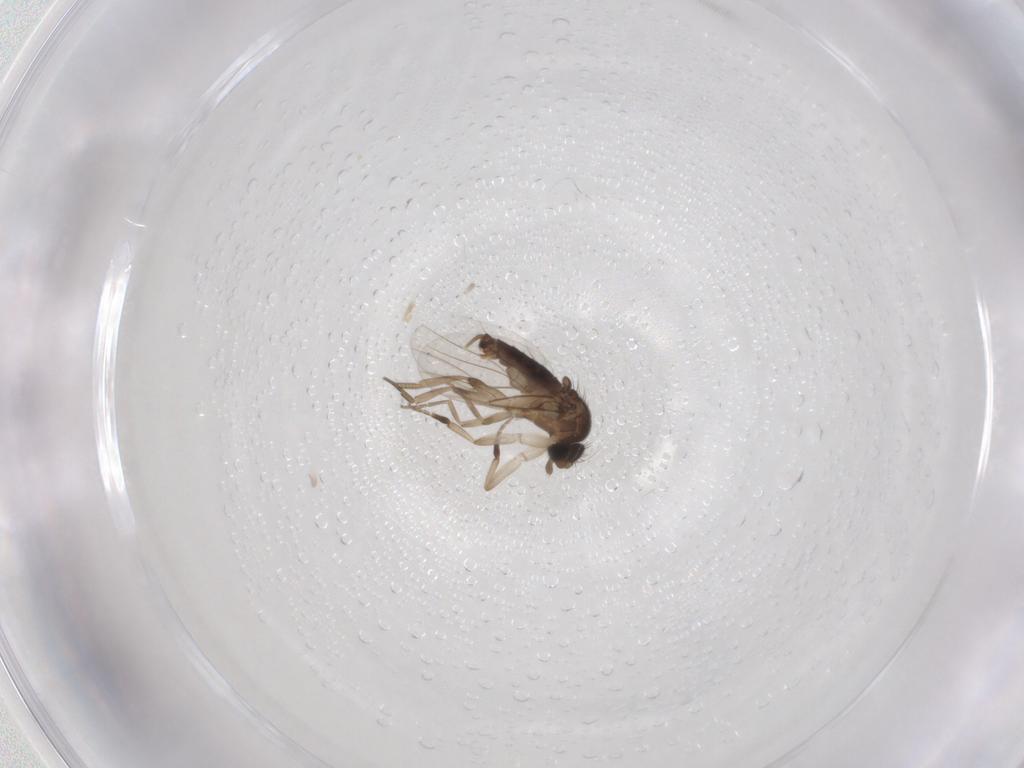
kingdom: Animalia
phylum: Arthropoda
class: Insecta
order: Diptera
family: Phoridae
